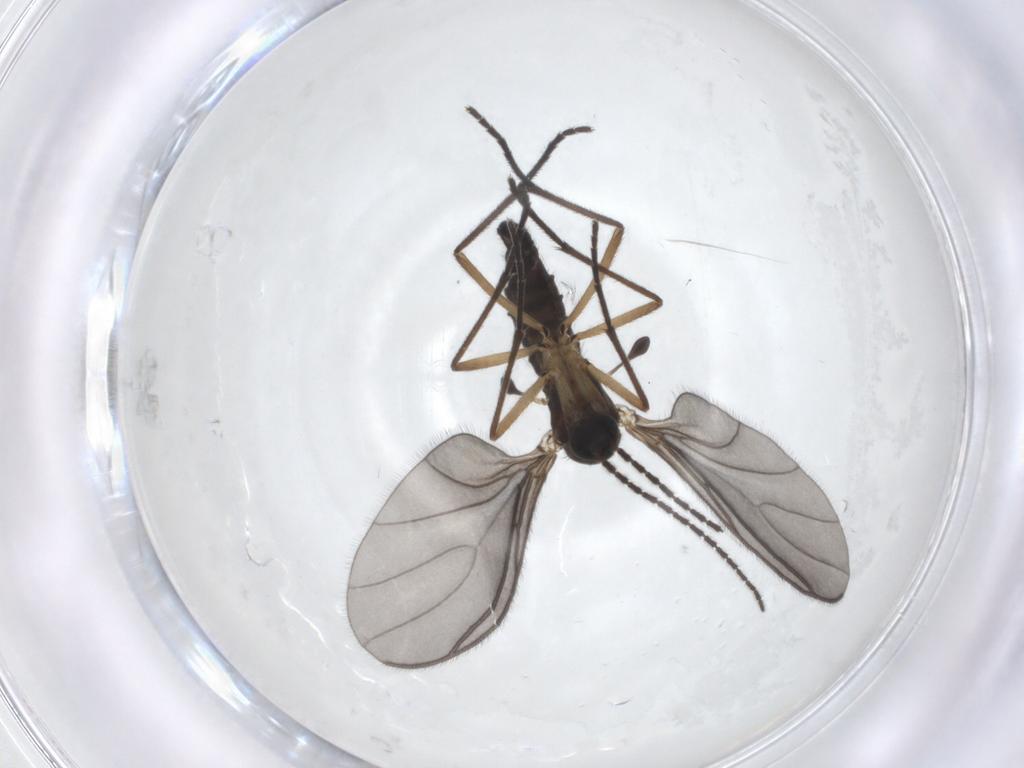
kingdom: Animalia
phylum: Arthropoda
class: Insecta
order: Diptera
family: Sciaridae
